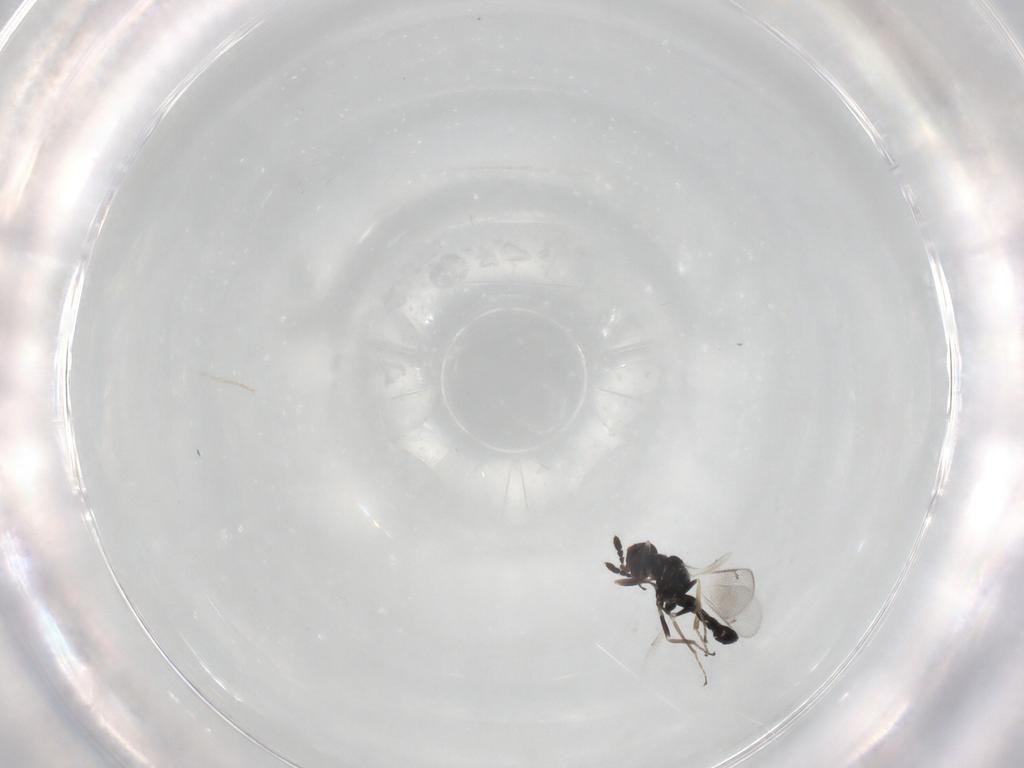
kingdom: Animalia
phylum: Arthropoda
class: Insecta
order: Hymenoptera
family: Eulophidae
